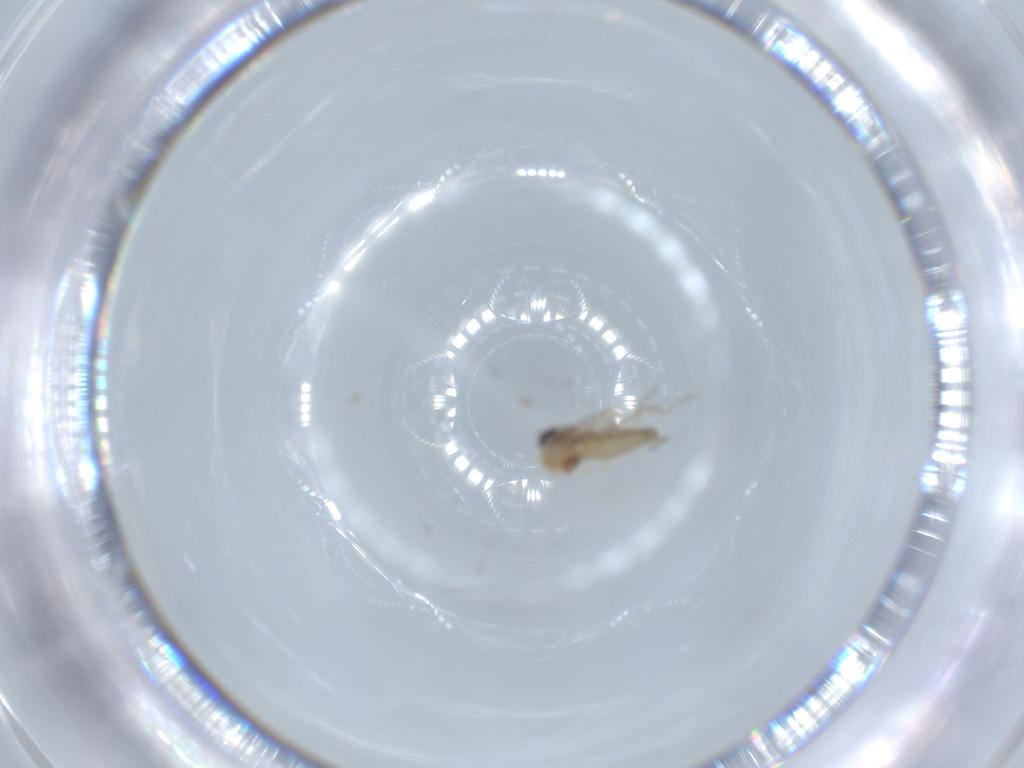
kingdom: Animalia
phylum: Arthropoda
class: Insecta
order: Diptera
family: Ceratopogonidae
